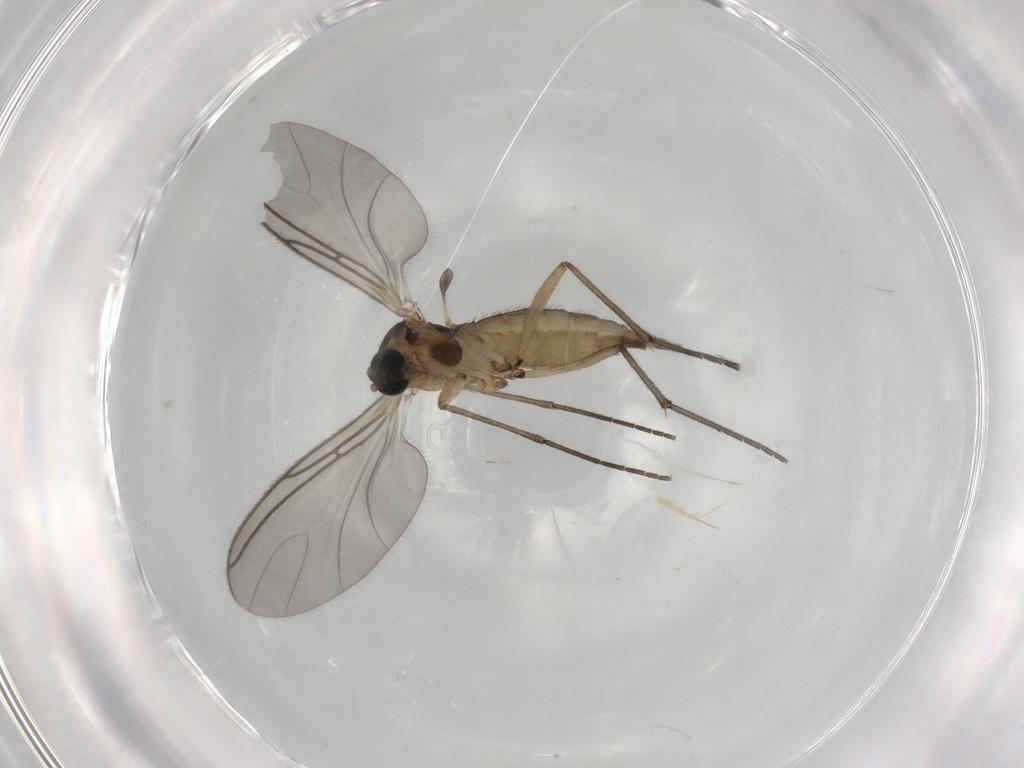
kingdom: Animalia
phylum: Arthropoda
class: Insecta
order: Diptera
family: Sciaridae
